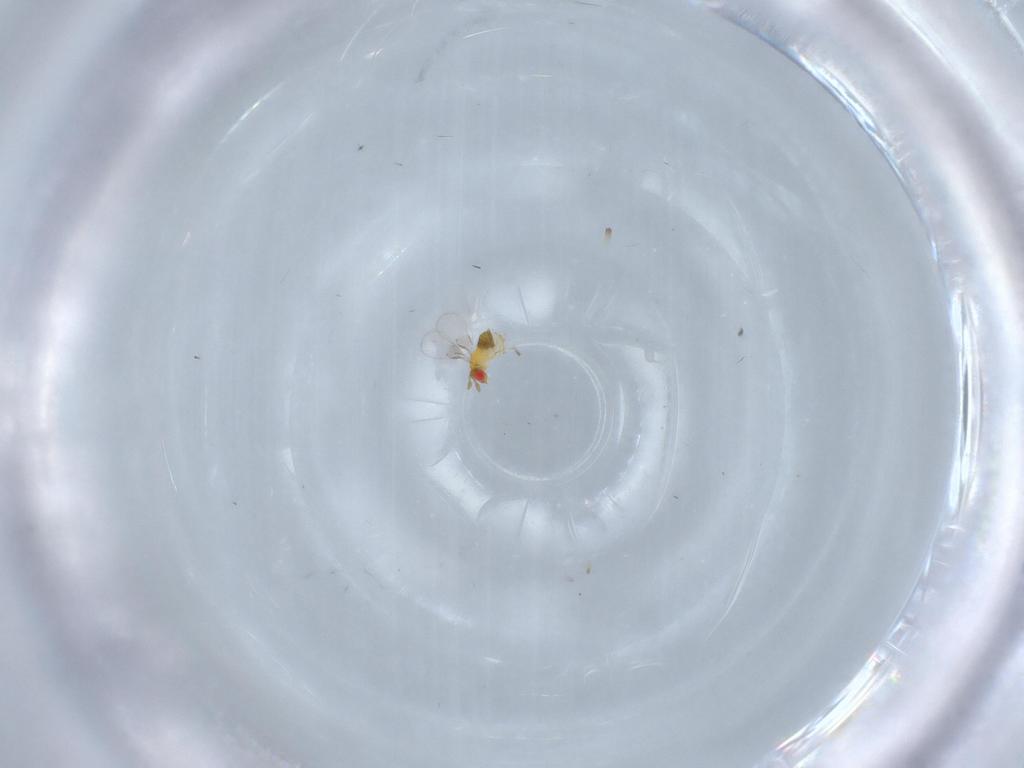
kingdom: Animalia
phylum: Arthropoda
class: Insecta
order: Hymenoptera
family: Trichogrammatidae
